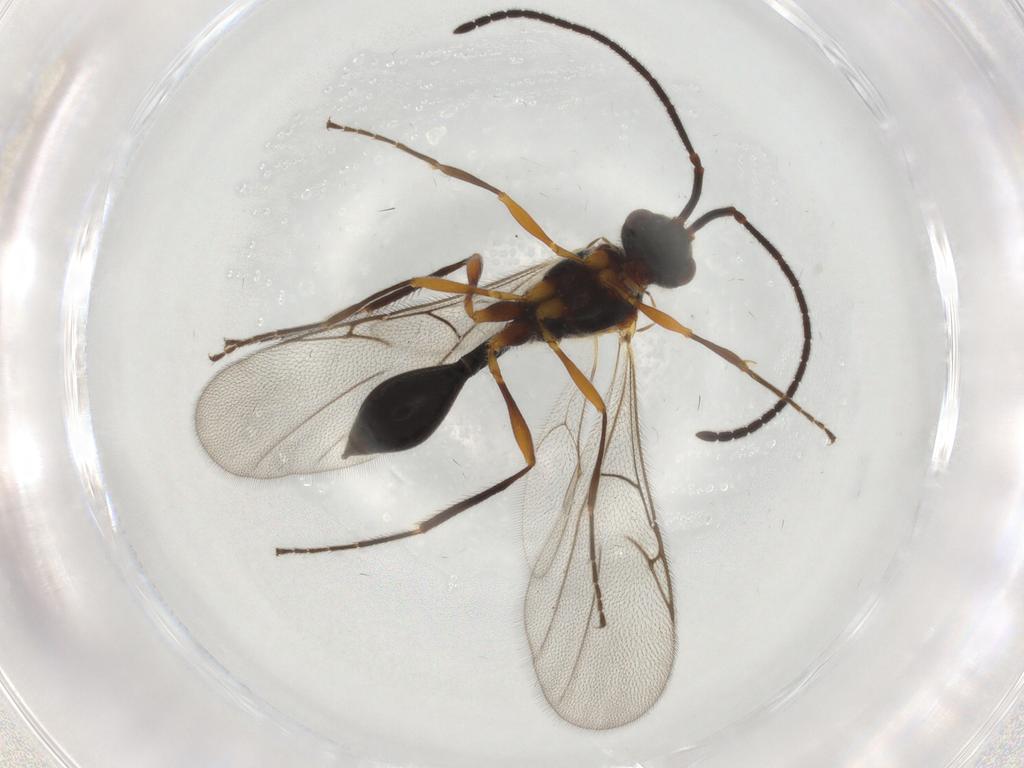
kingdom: Animalia
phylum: Arthropoda
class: Insecta
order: Hymenoptera
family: Diapriidae
